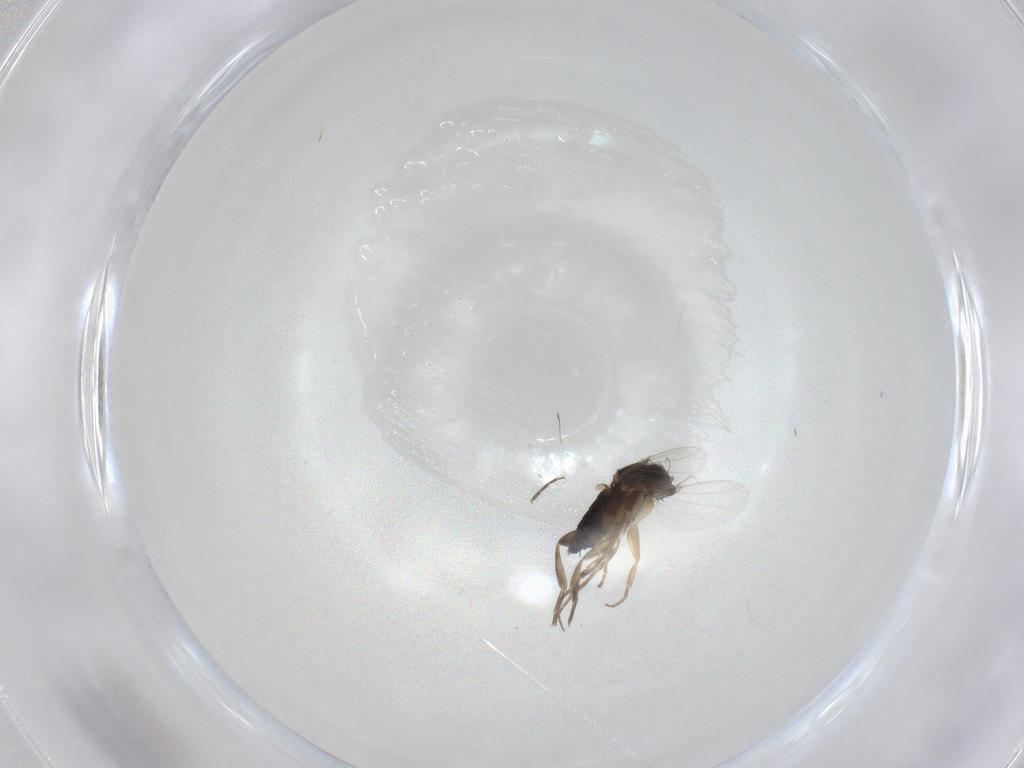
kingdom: Animalia
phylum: Arthropoda
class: Insecta
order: Diptera
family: Phoridae
